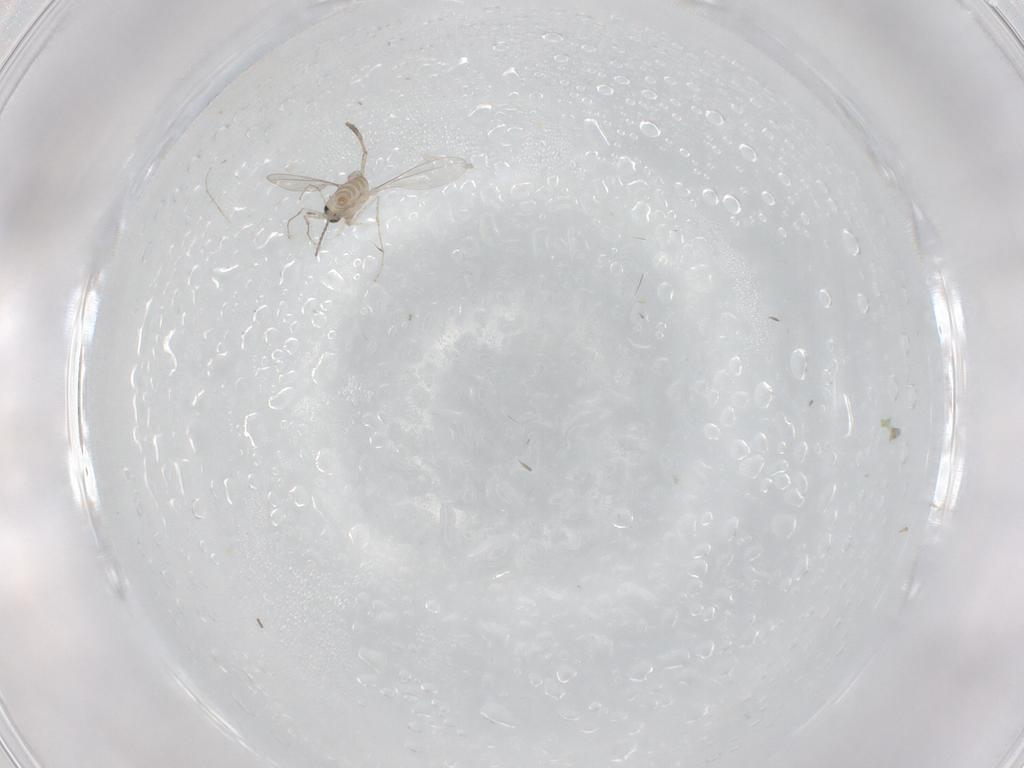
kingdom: Animalia
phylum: Arthropoda
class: Insecta
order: Diptera
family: Cecidomyiidae
